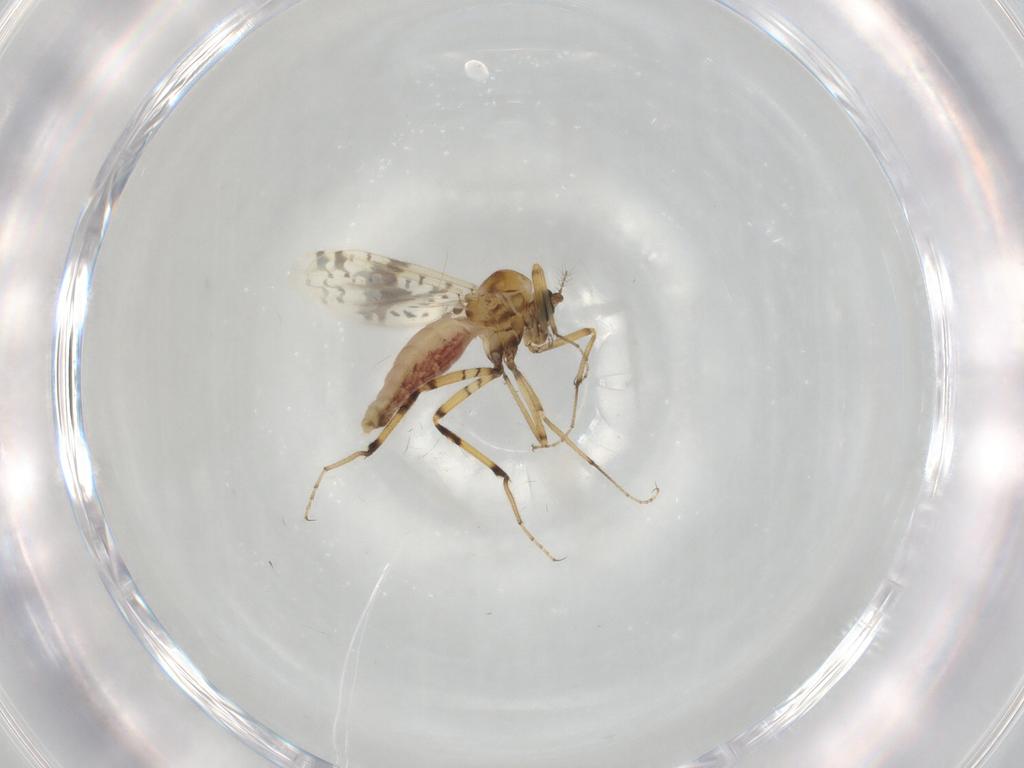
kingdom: Animalia
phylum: Arthropoda
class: Insecta
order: Diptera
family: Ceratopogonidae
